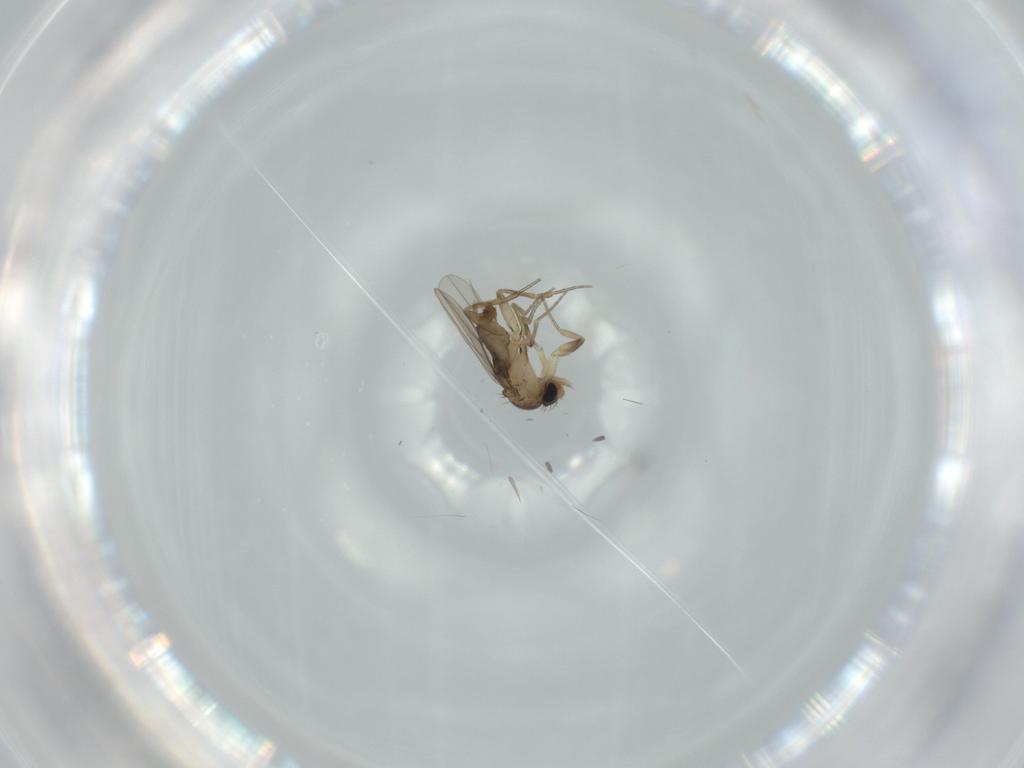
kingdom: Animalia
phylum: Arthropoda
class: Insecta
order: Diptera
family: Phoridae
